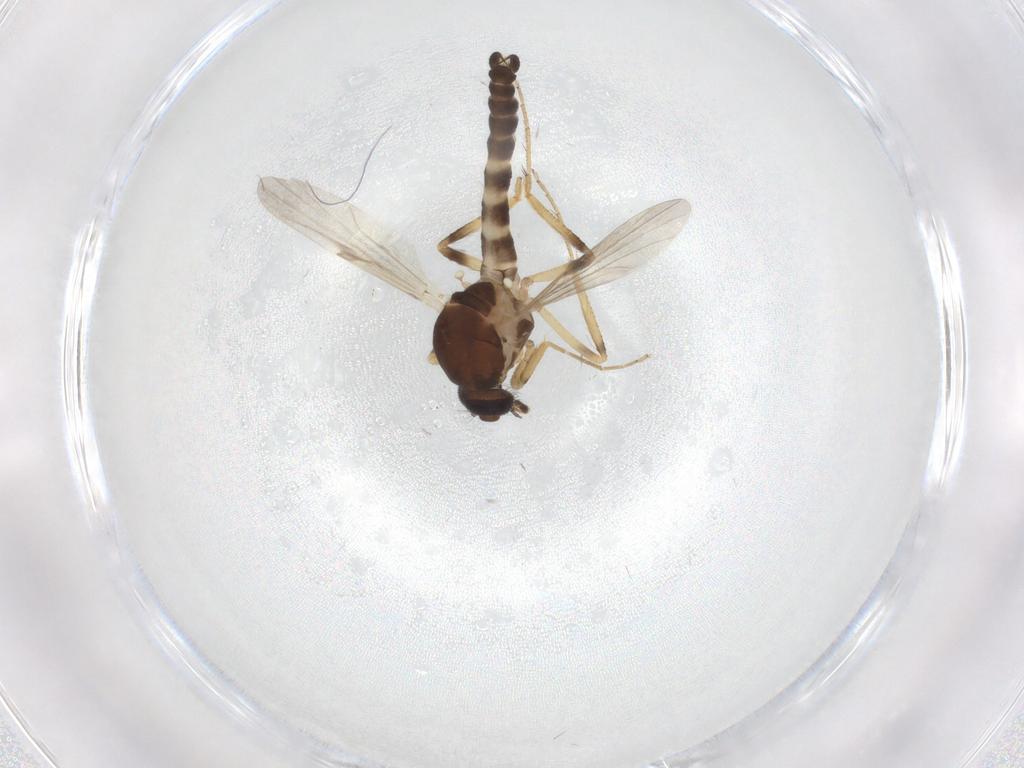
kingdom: Animalia
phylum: Arthropoda
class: Insecta
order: Diptera
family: Ceratopogonidae
